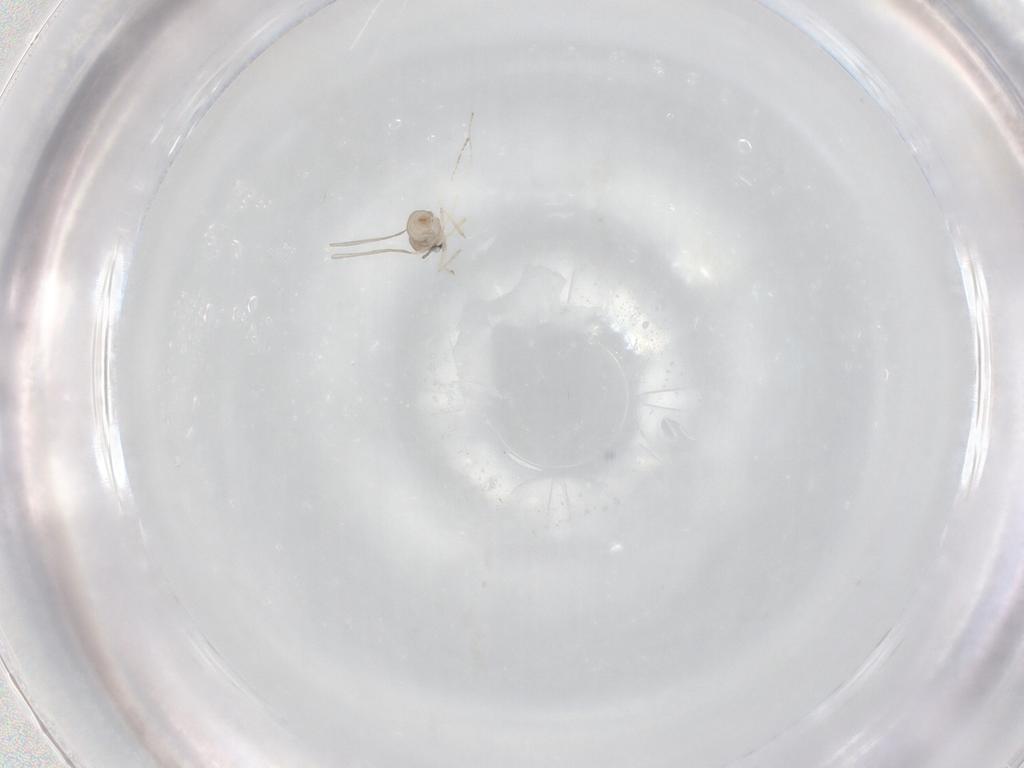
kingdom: Animalia
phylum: Arthropoda
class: Insecta
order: Diptera
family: Cecidomyiidae
